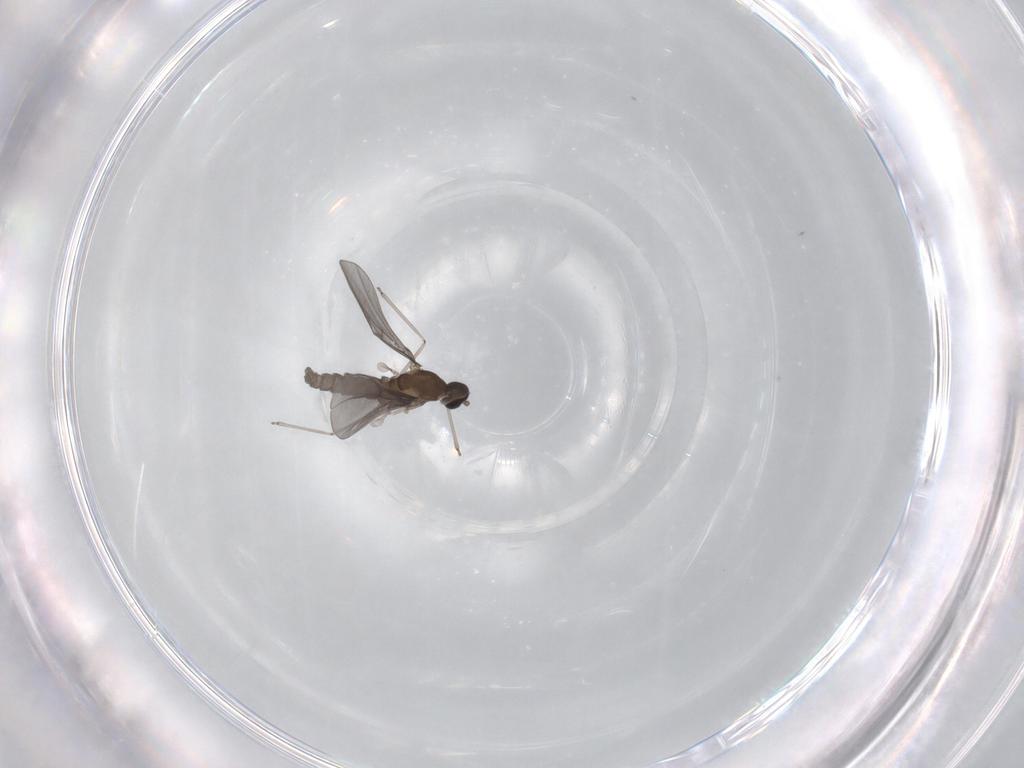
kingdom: Animalia
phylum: Arthropoda
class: Insecta
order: Diptera
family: Cecidomyiidae
